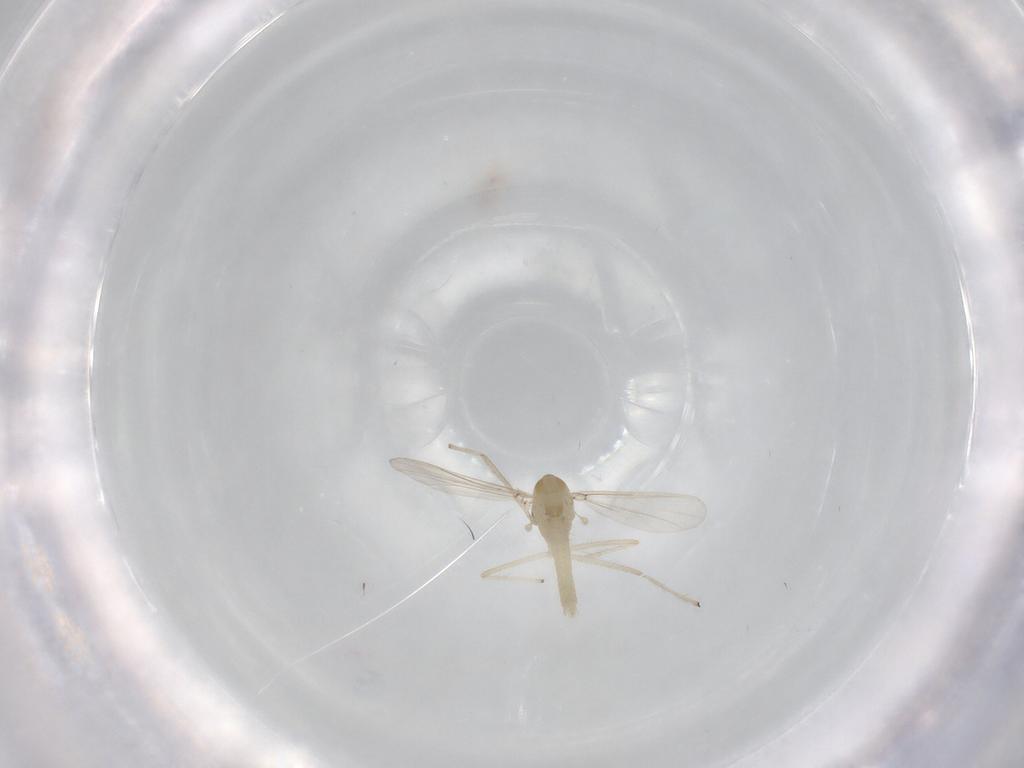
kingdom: Animalia
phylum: Arthropoda
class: Insecta
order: Diptera
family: Chironomidae
